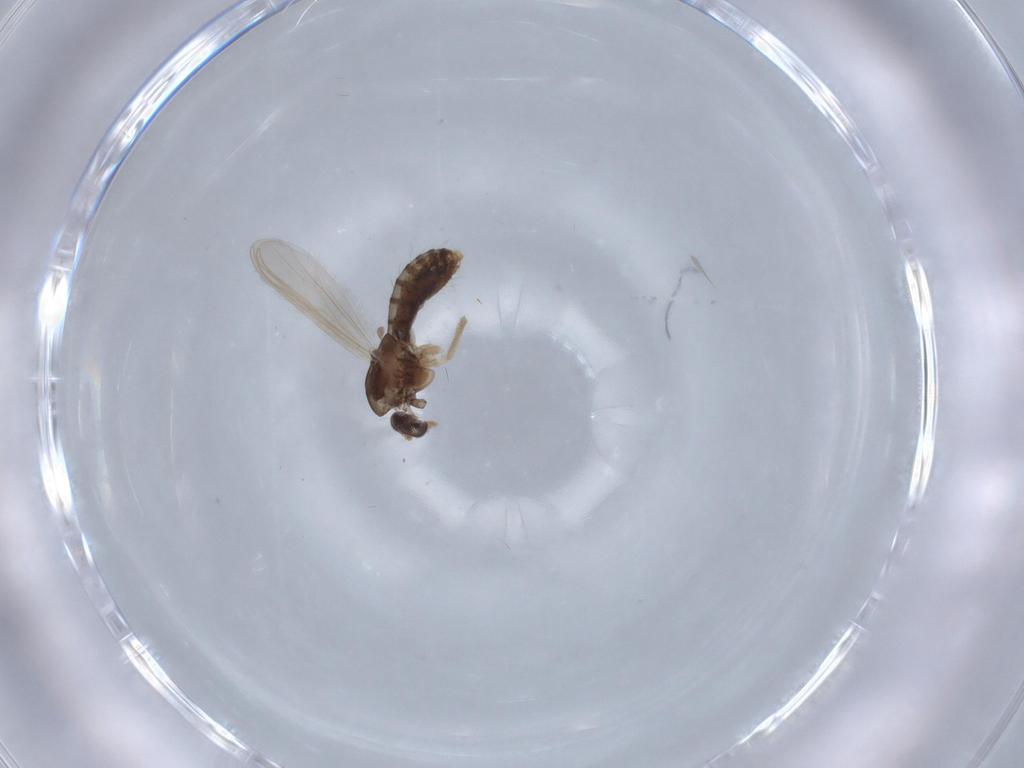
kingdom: Animalia
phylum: Arthropoda
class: Insecta
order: Diptera
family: Chironomidae
